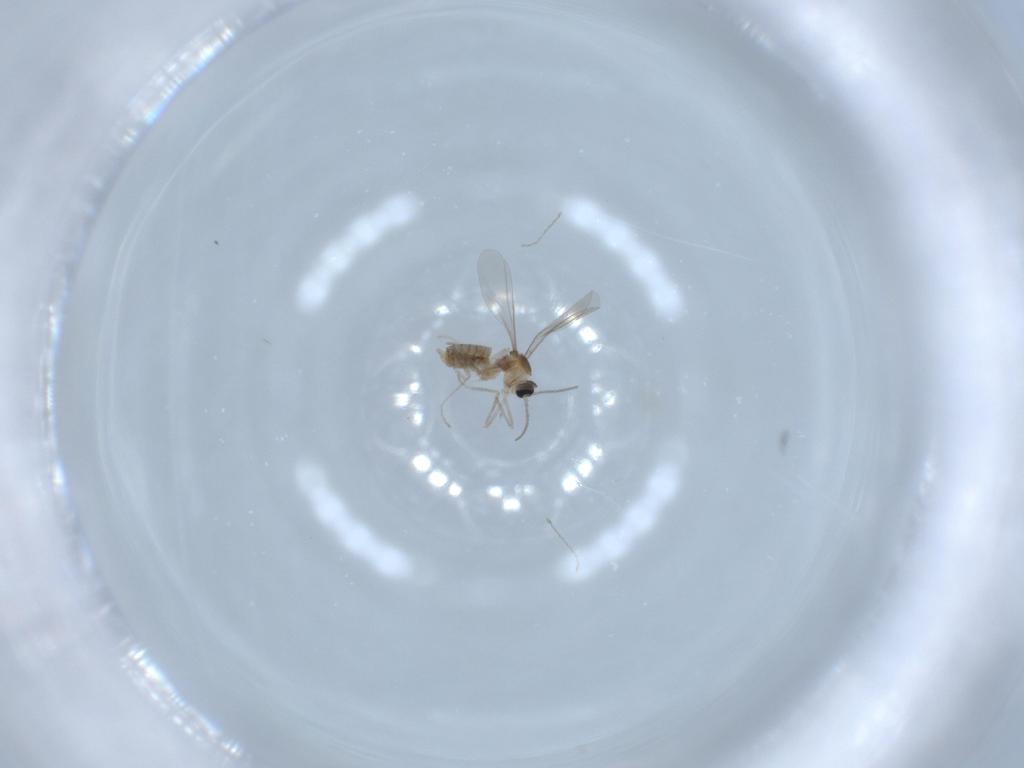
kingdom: Animalia
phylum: Arthropoda
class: Insecta
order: Diptera
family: Cecidomyiidae
